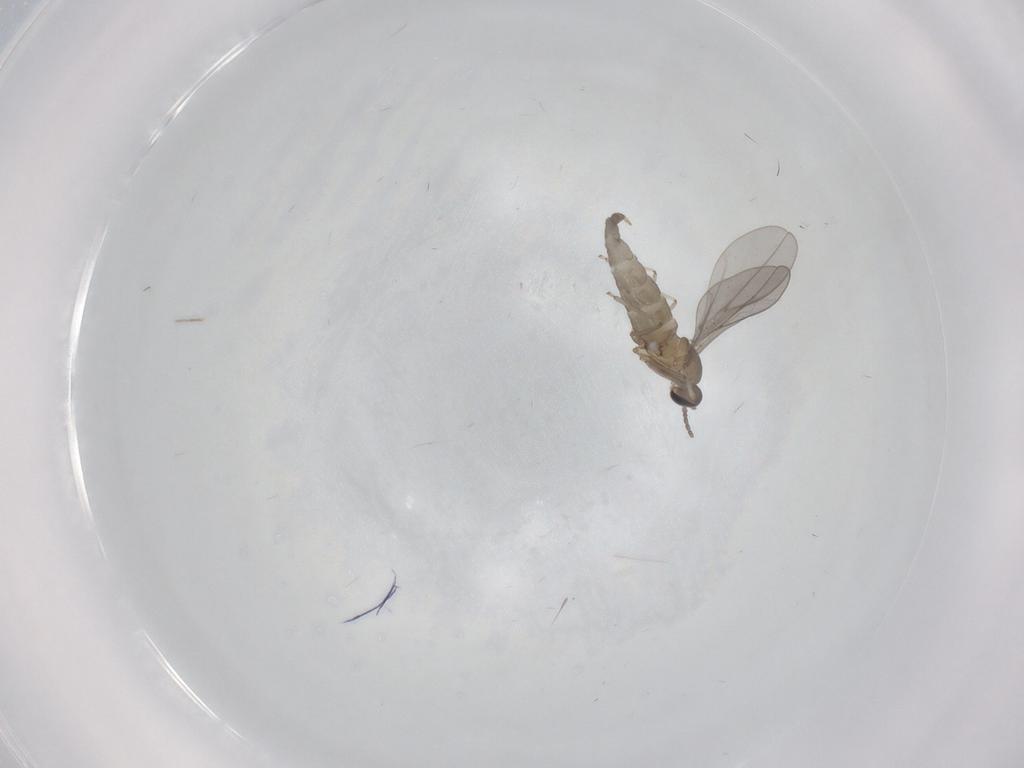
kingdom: Animalia
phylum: Arthropoda
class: Insecta
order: Diptera
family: Cecidomyiidae
